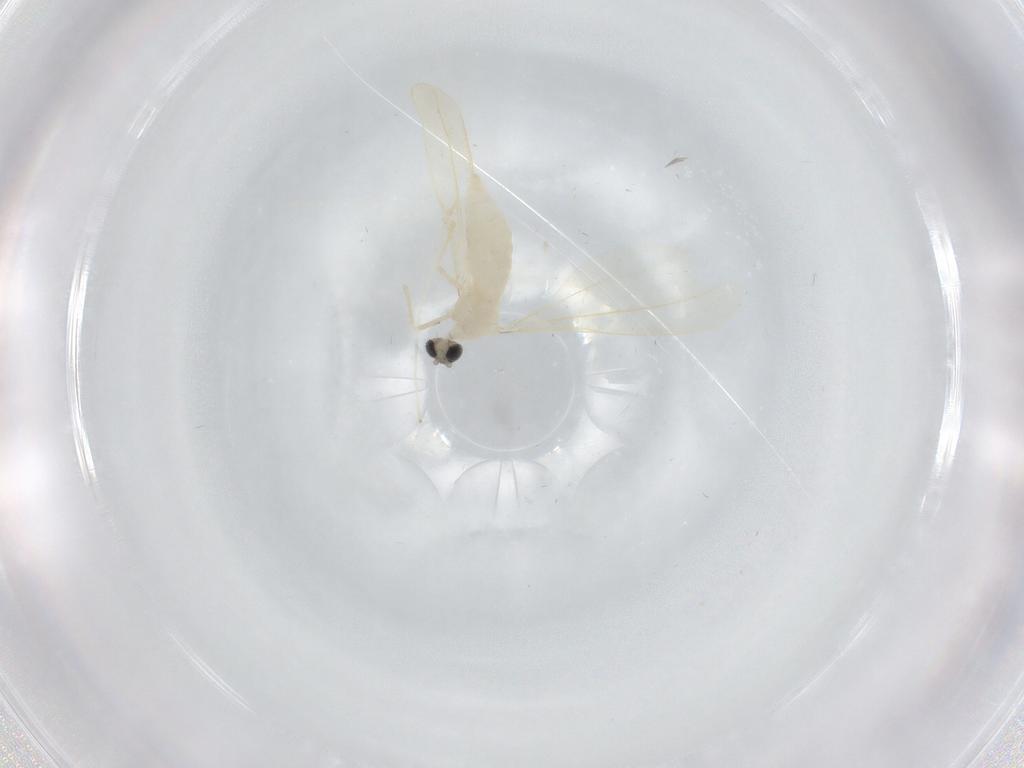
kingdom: Animalia
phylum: Arthropoda
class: Insecta
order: Diptera
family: Cecidomyiidae
